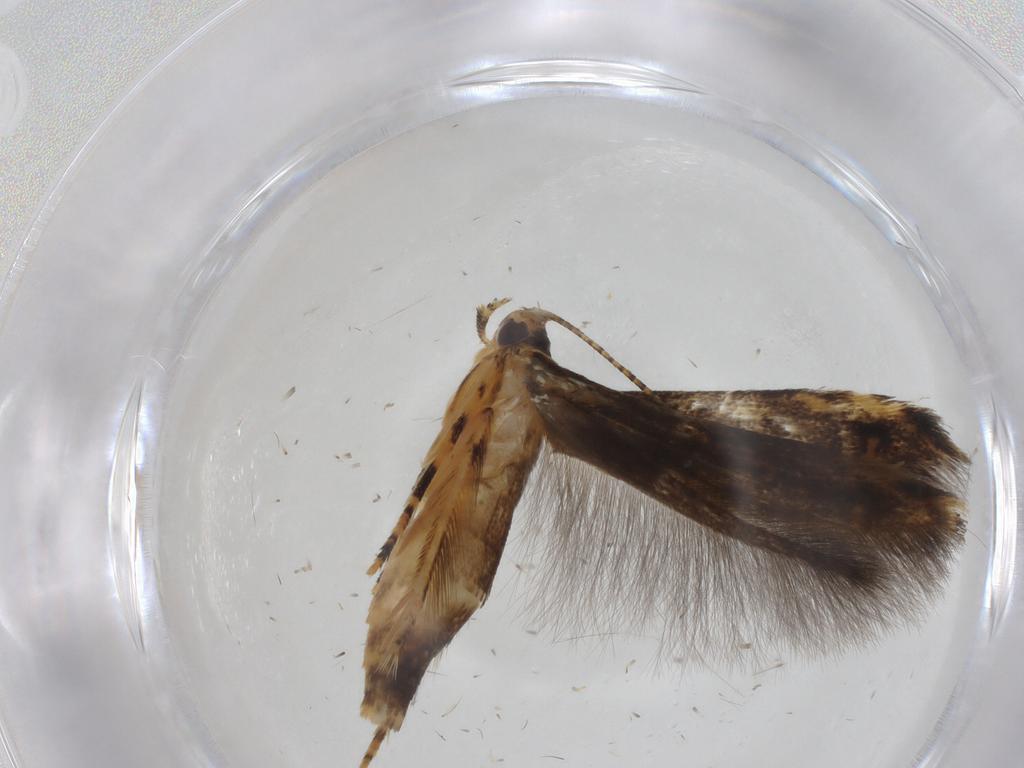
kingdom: Animalia
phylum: Arthropoda
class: Insecta
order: Lepidoptera
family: Erebidae
